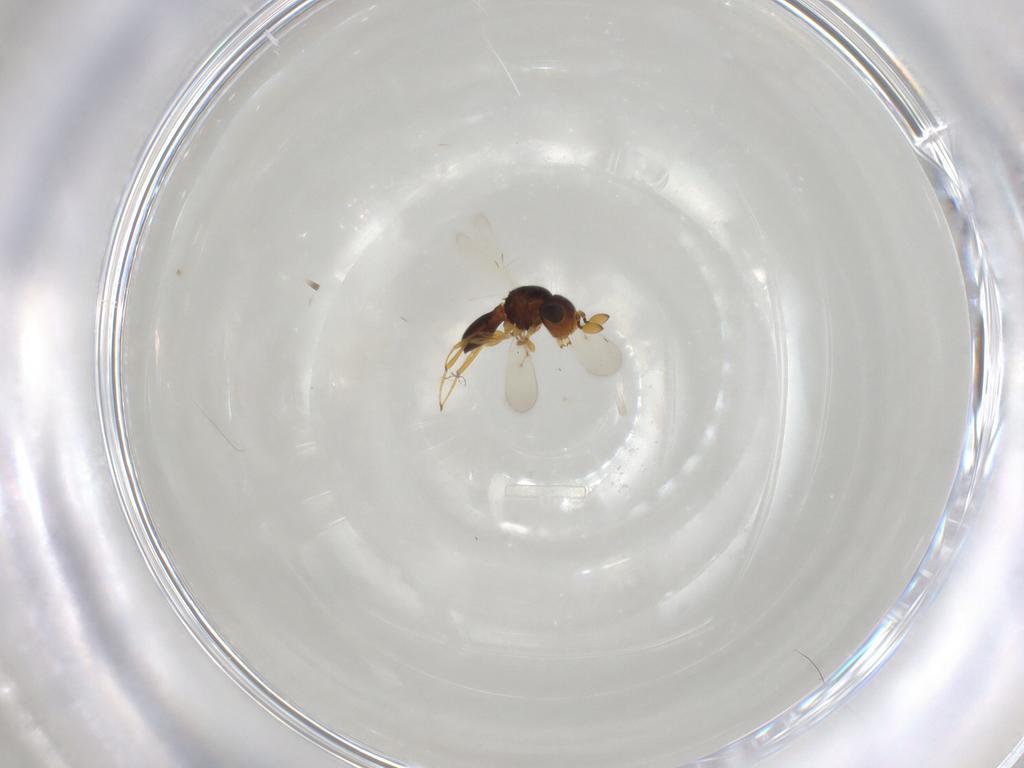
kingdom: Animalia
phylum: Arthropoda
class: Insecta
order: Hymenoptera
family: Scelionidae
